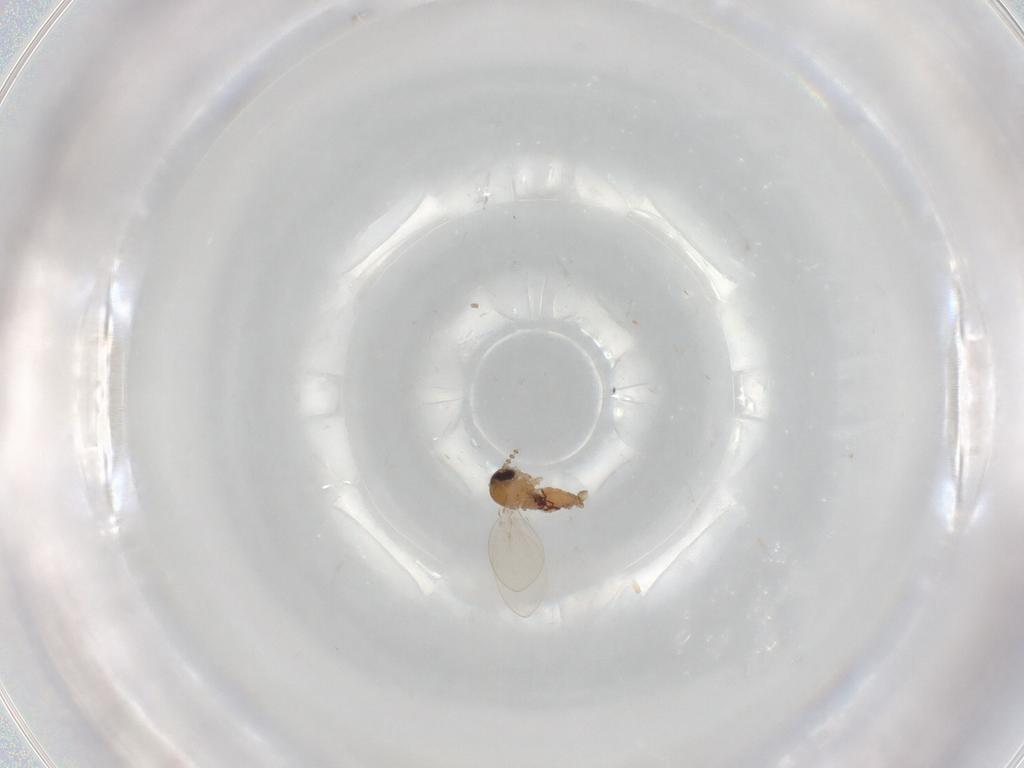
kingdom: Animalia
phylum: Arthropoda
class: Insecta
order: Diptera
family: Psychodidae
